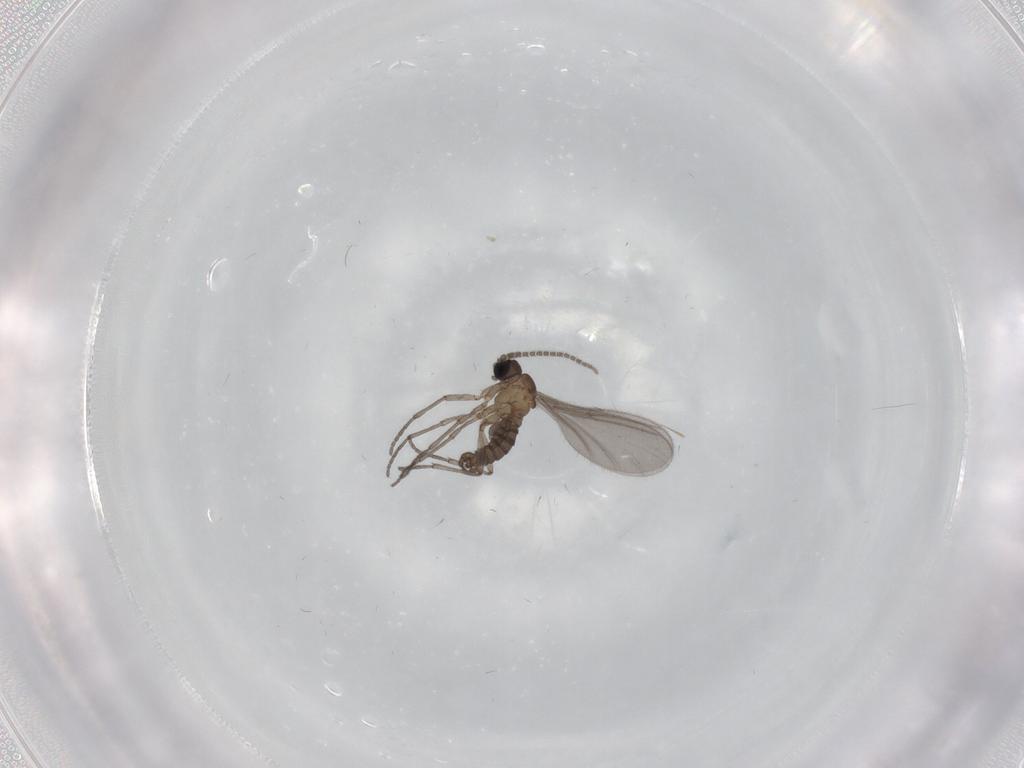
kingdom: Animalia
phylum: Arthropoda
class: Insecta
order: Diptera
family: Sciaridae
